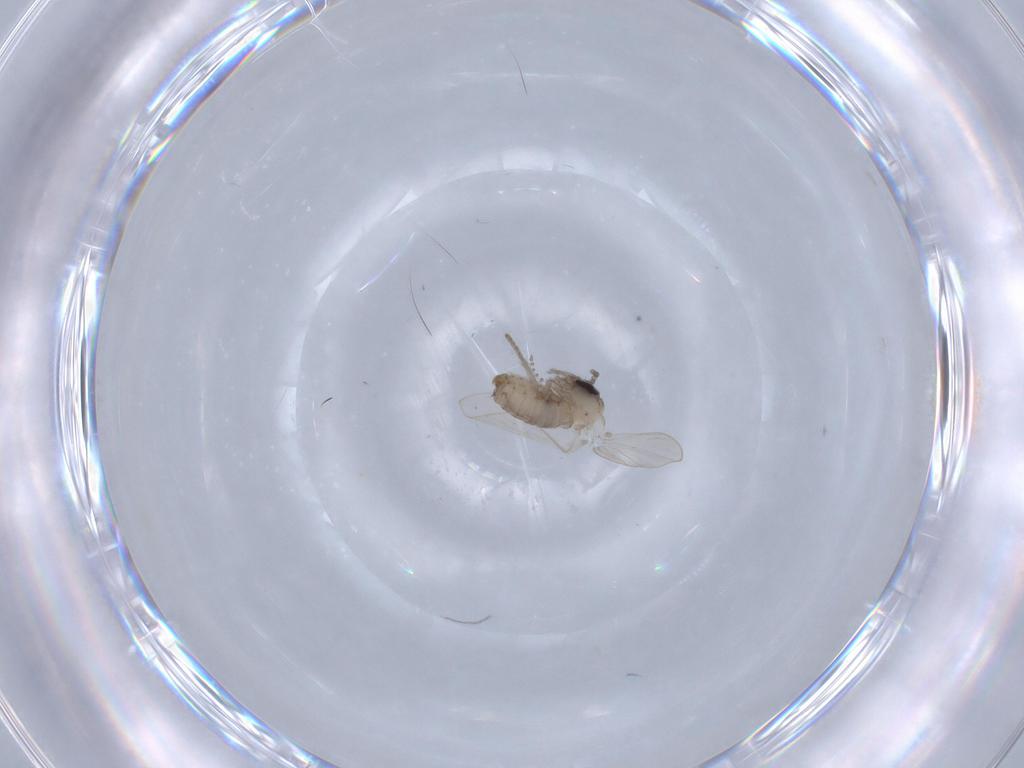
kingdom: Animalia
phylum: Arthropoda
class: Insecta
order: Diptera
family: Psychodidae
